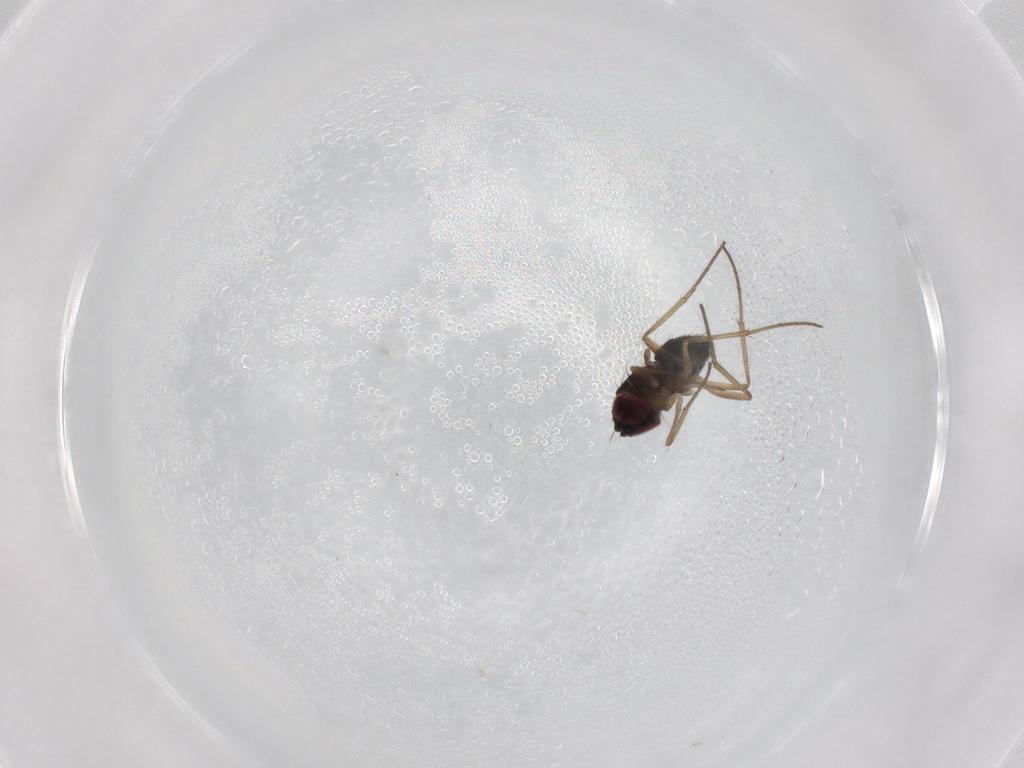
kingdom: Animalia
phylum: Arthropoda
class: Insecta
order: Diptera
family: Dolichopodidae
